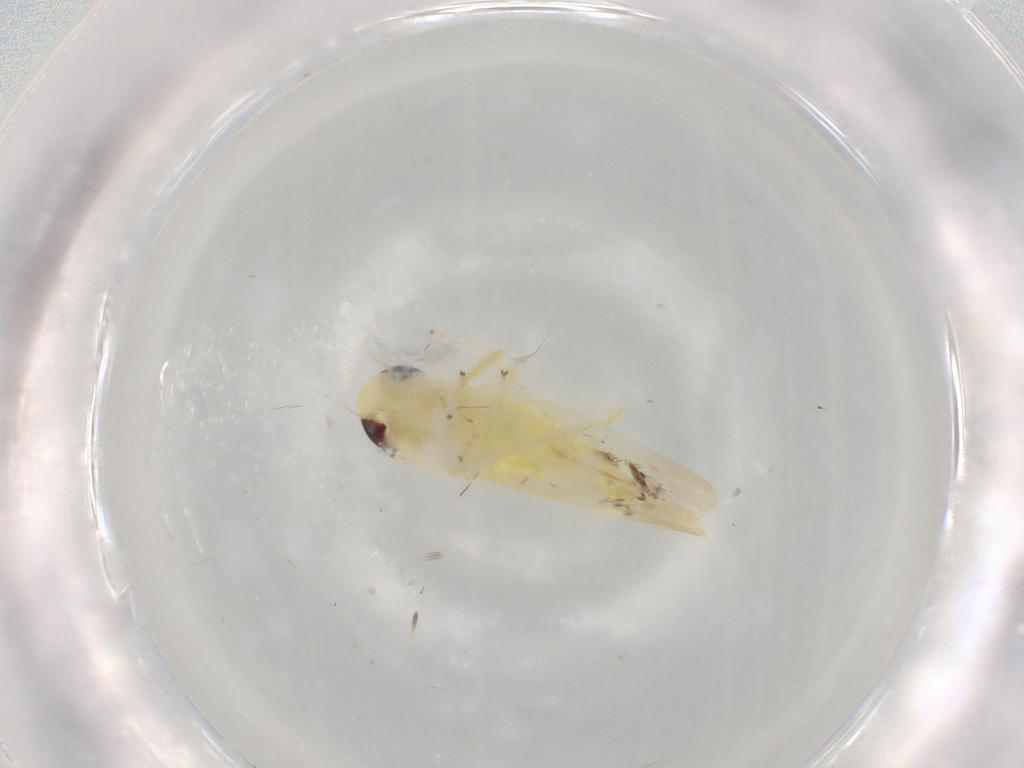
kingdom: Animalia
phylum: Arthropoda
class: Insecta
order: Hemiptera
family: Cicadellidae
